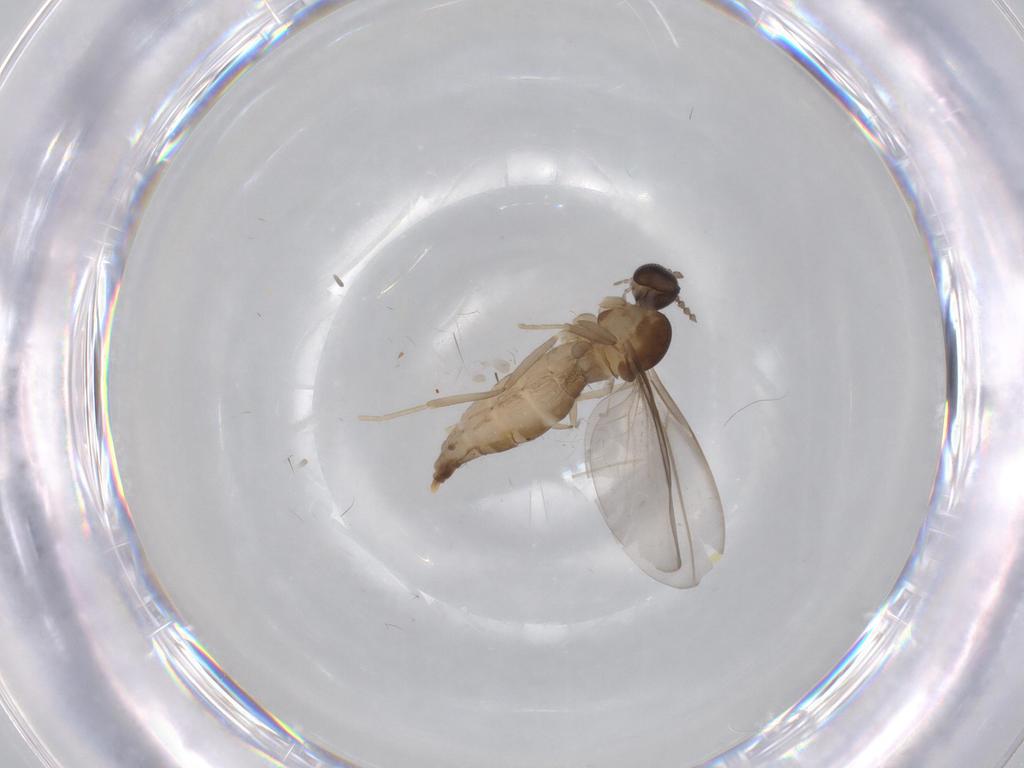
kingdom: Animalia
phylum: Arthropoda
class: Insecta
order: Diptera
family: Cecidomyiidae
